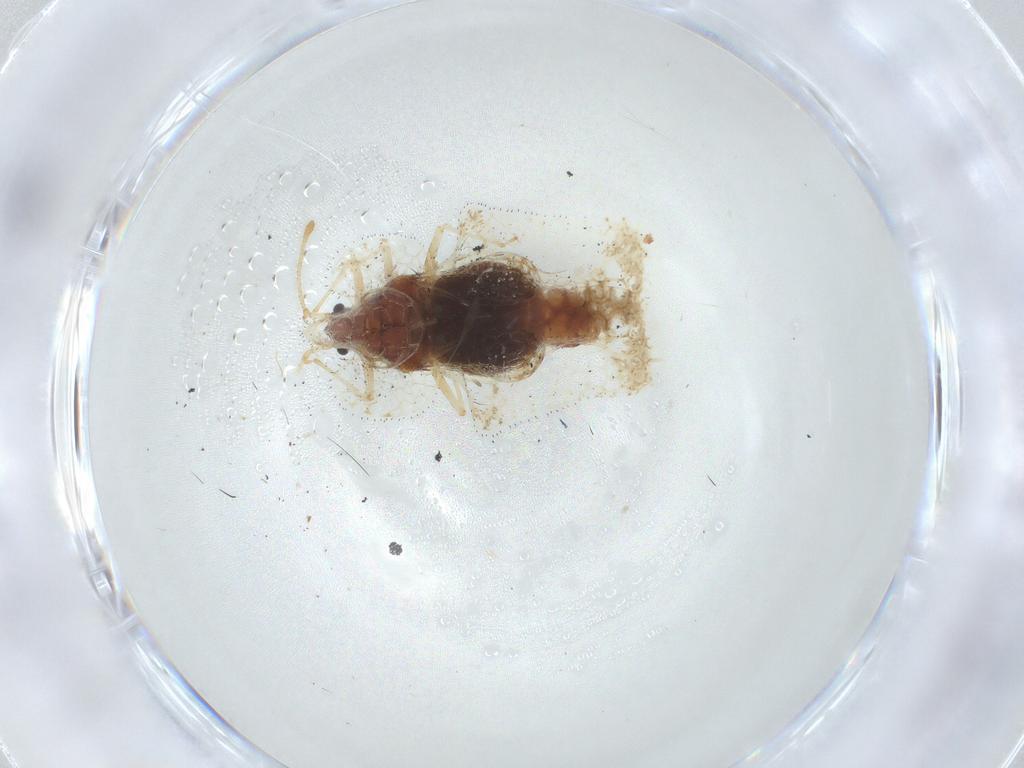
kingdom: Animalia
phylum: Arthropoda
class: Insecta
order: Hemiptera
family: Tingidae
